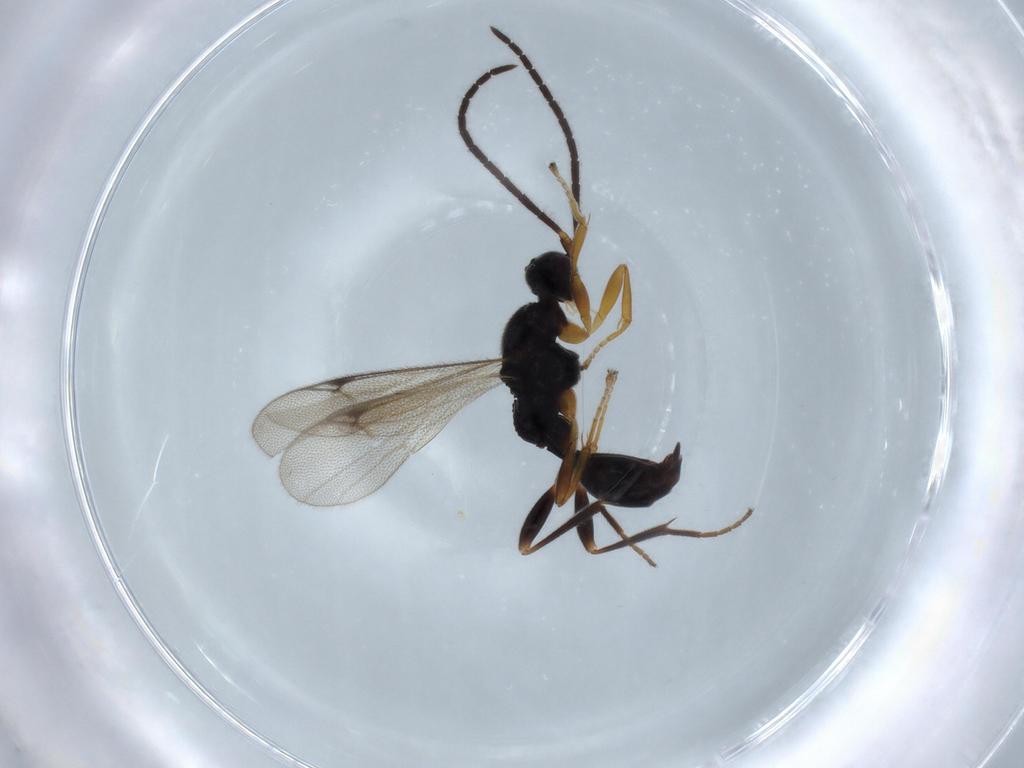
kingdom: Animalia
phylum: Arthropoda
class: Insecta
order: Hymenoptera
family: Proctotrupidae
